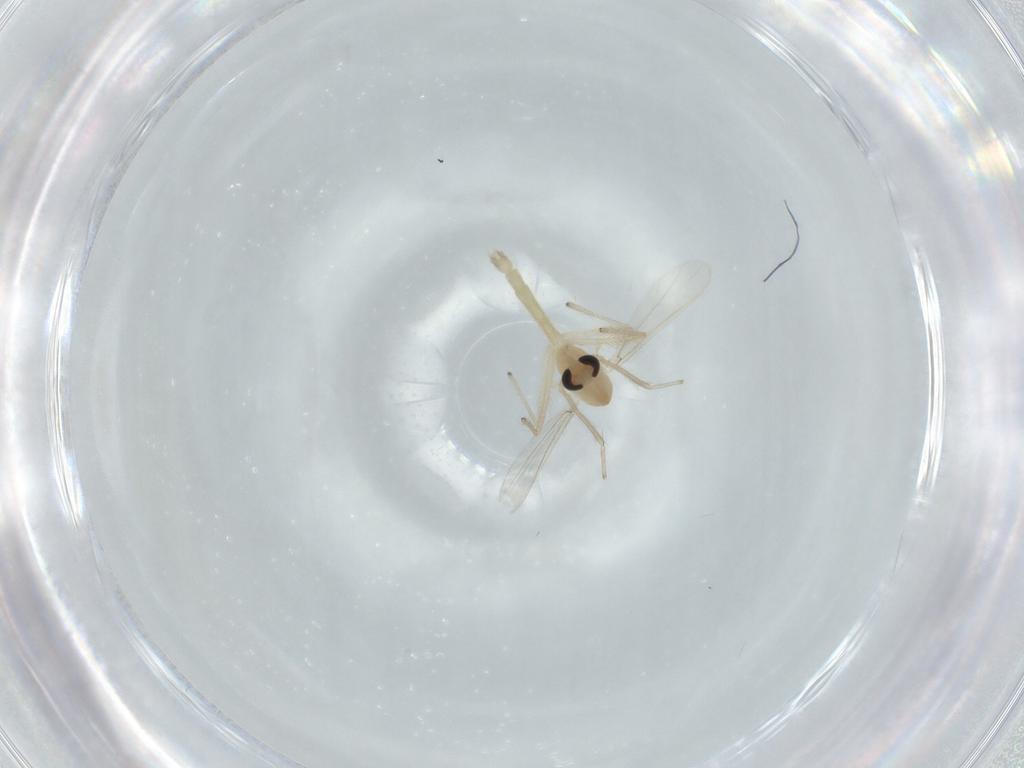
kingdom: Animalia
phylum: Arthropoda
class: Insecta
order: Diptera
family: Chironomidae
